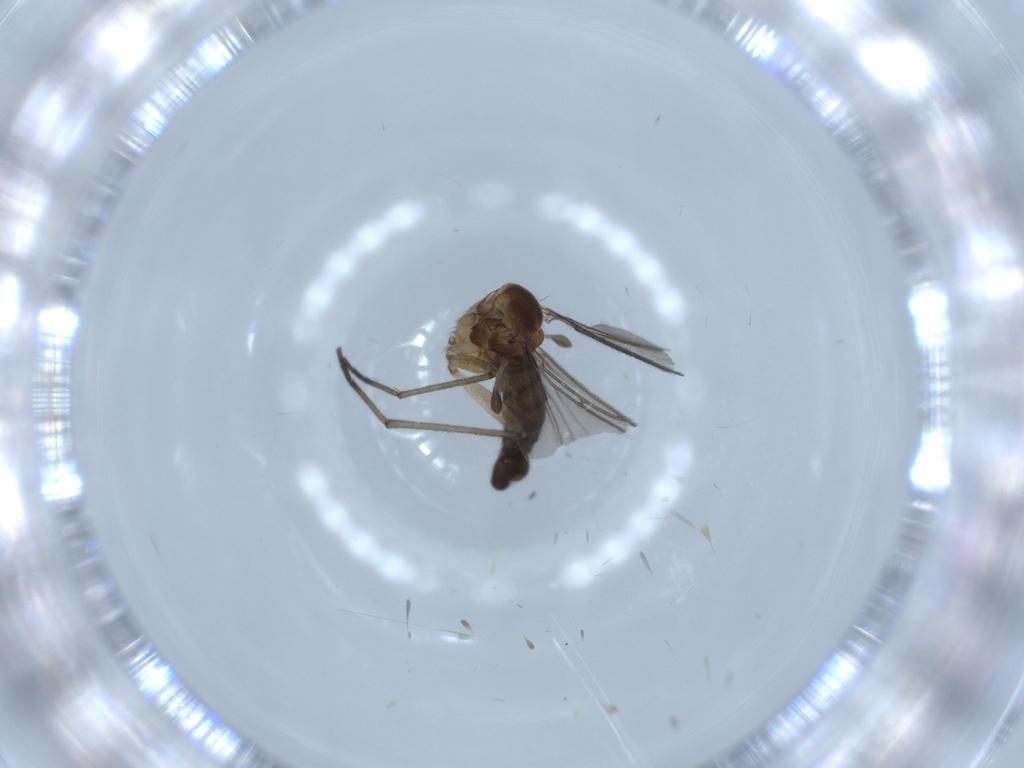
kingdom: Animalia
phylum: Arthropoda
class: Insecta
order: Diptera
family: Sciaridae
